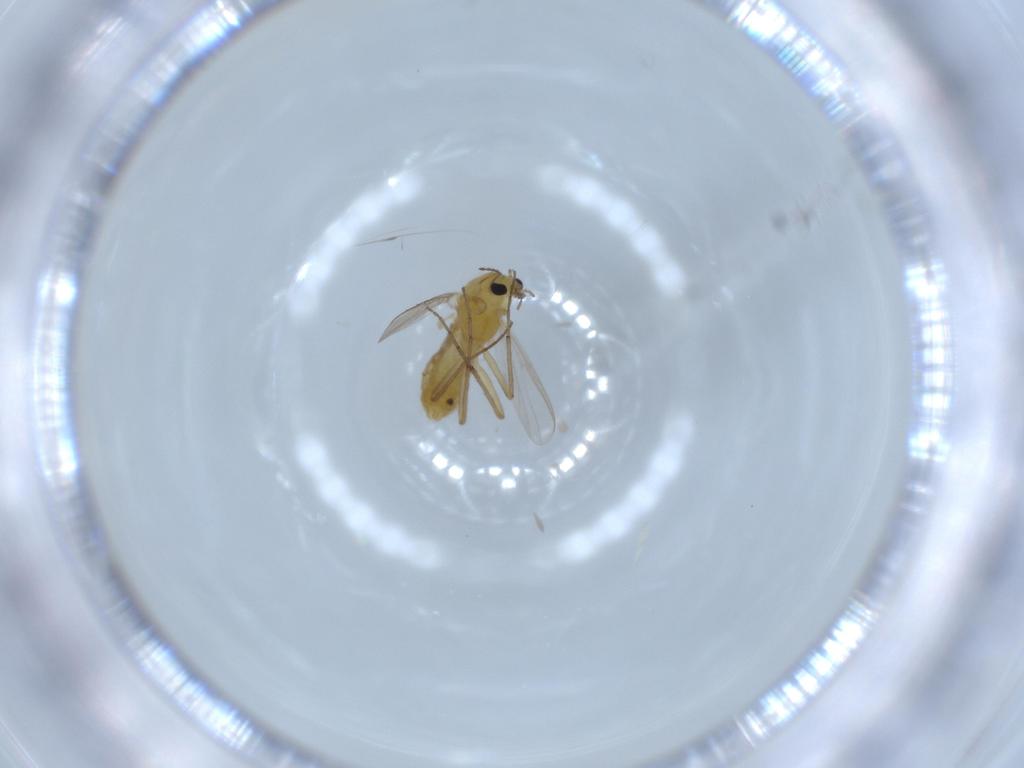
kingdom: Animalia
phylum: Arthropoda
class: Insecta
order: Diptera
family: Chironomidae
